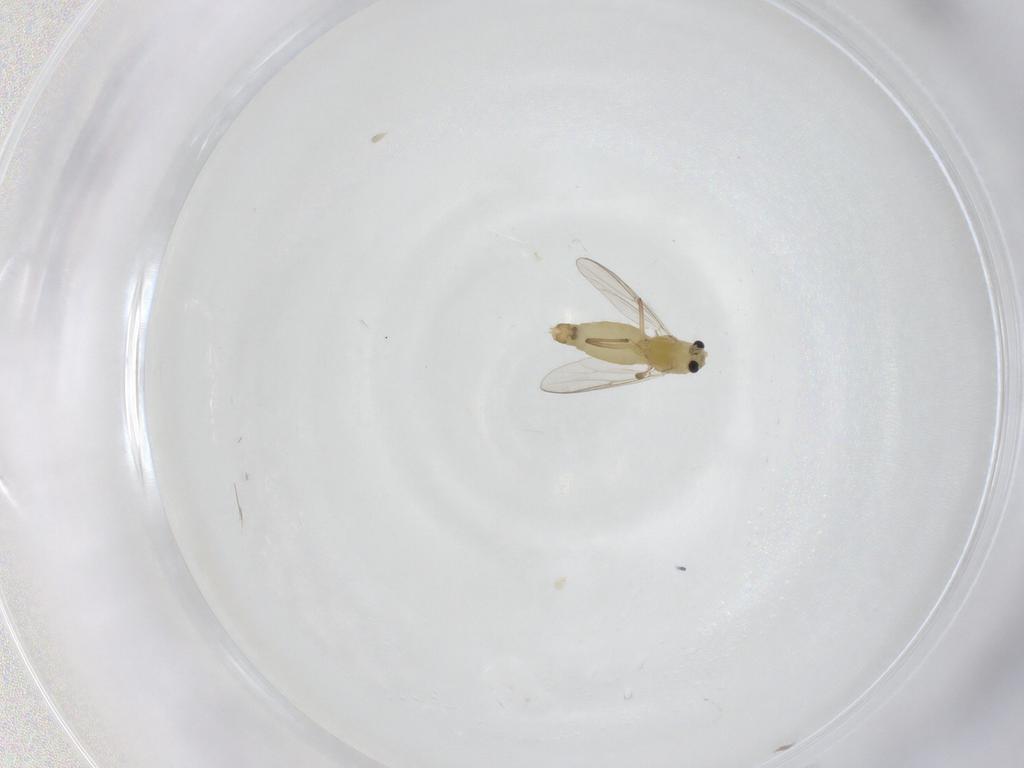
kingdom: Animalia
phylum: Arthropoda
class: Insecta
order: Diptera
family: Chironomidae
